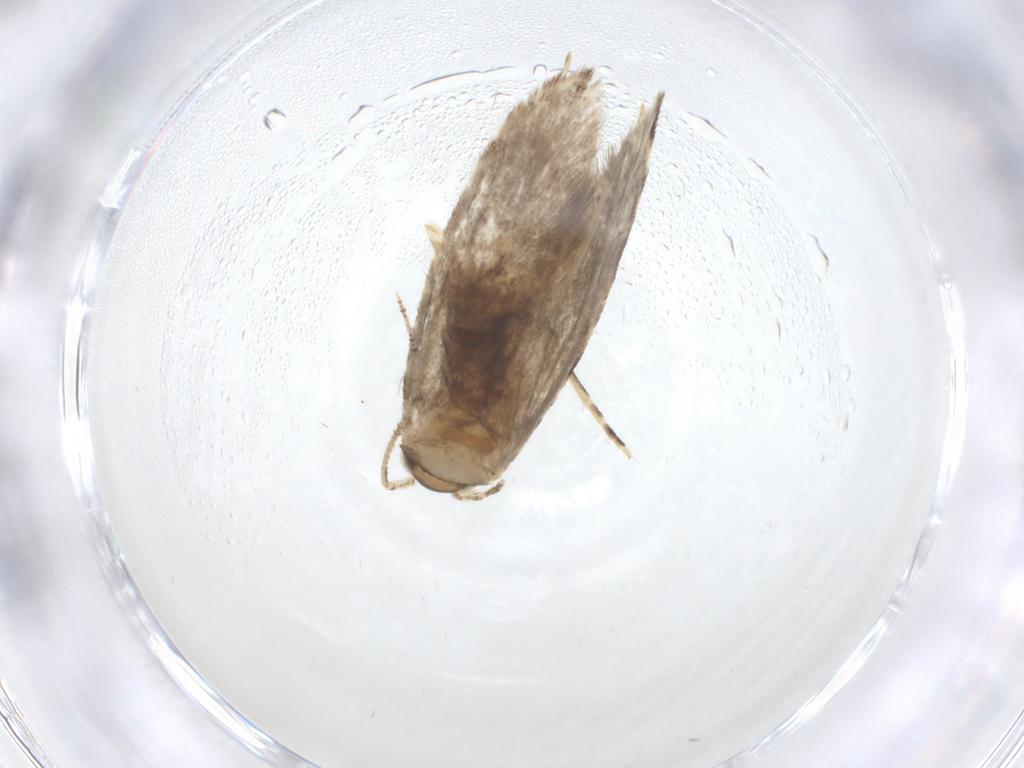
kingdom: Animalia
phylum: Arthropoda
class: Insecta
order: Lepidoptera
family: Tineidae
